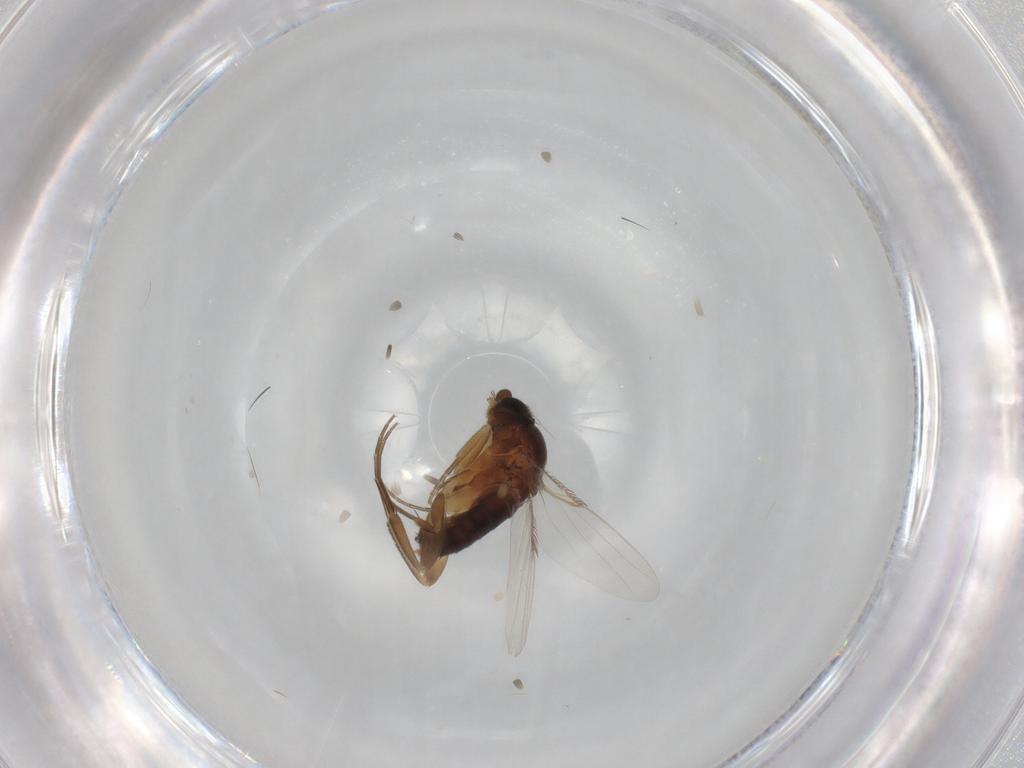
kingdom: Animalia
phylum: Arthropoda
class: Insecta
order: Diptera
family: Phoridae
